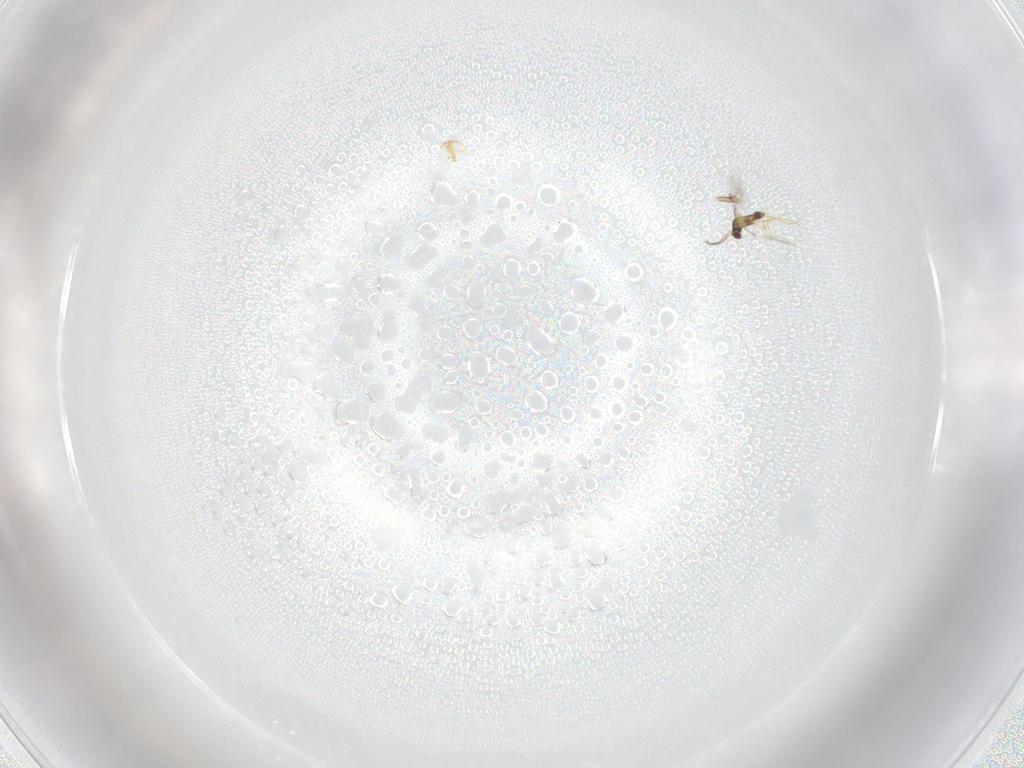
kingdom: Animalia
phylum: Arthropoda
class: Insecta
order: Hymenoptera
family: Mymaridae
